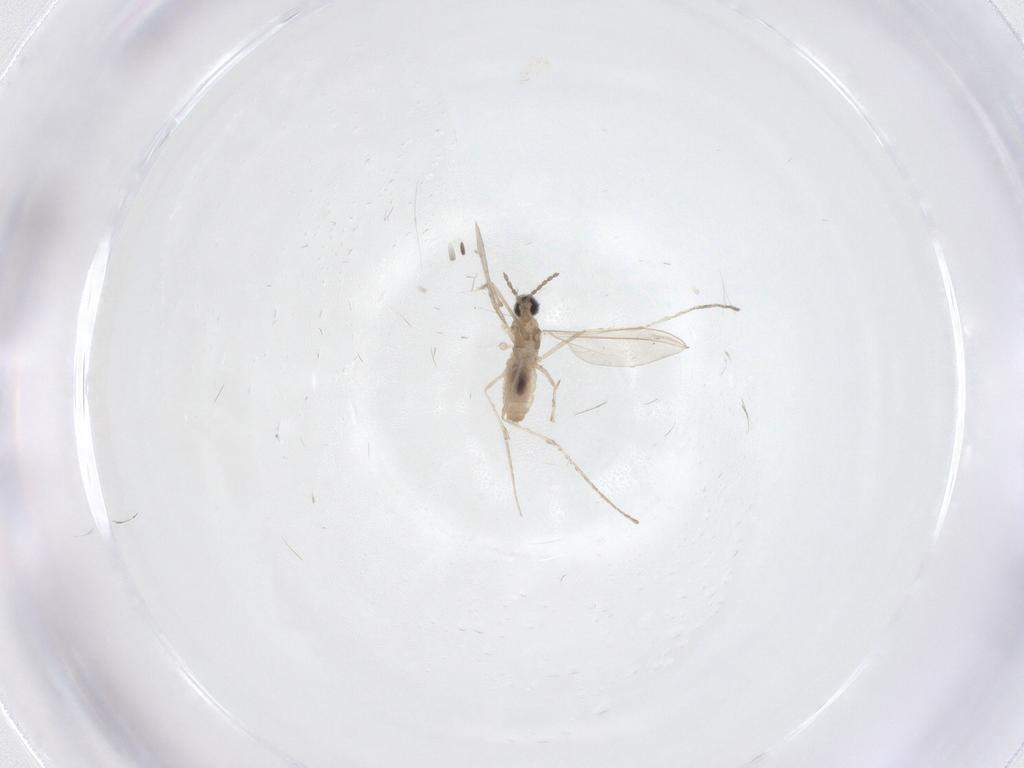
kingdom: Animalia
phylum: Arthropoda
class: Insecta
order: Diptera
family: Cecidomyiidae
